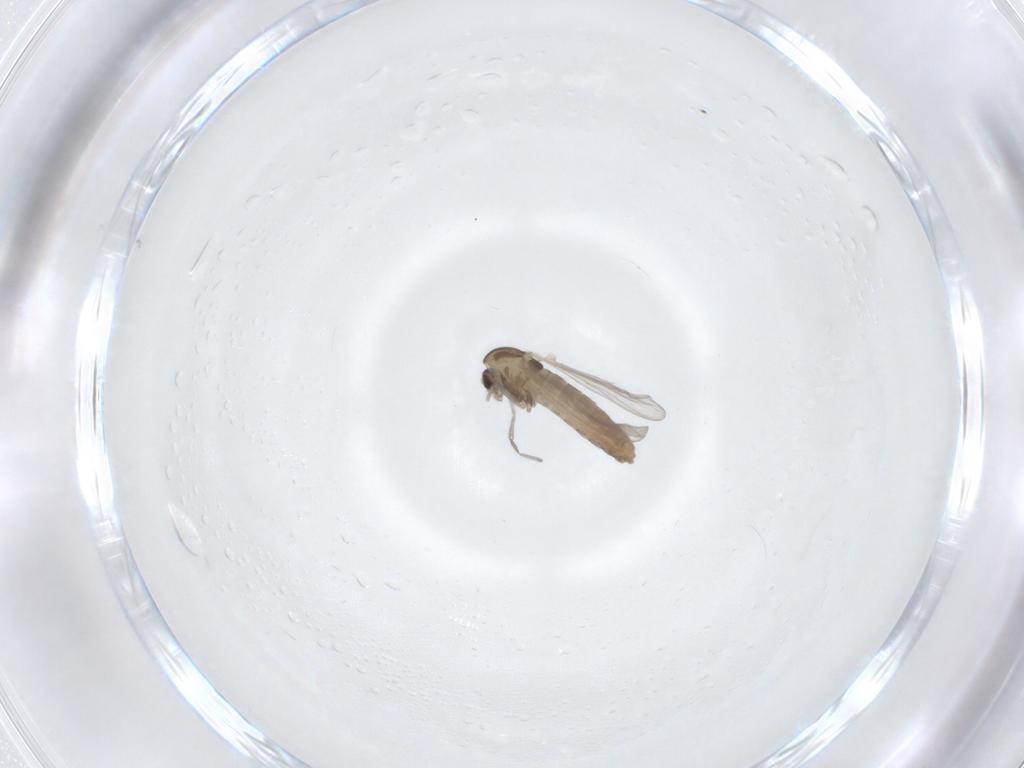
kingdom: Animalia
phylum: Arthropoda
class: Insecta
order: Diptera
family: Chironomidae
